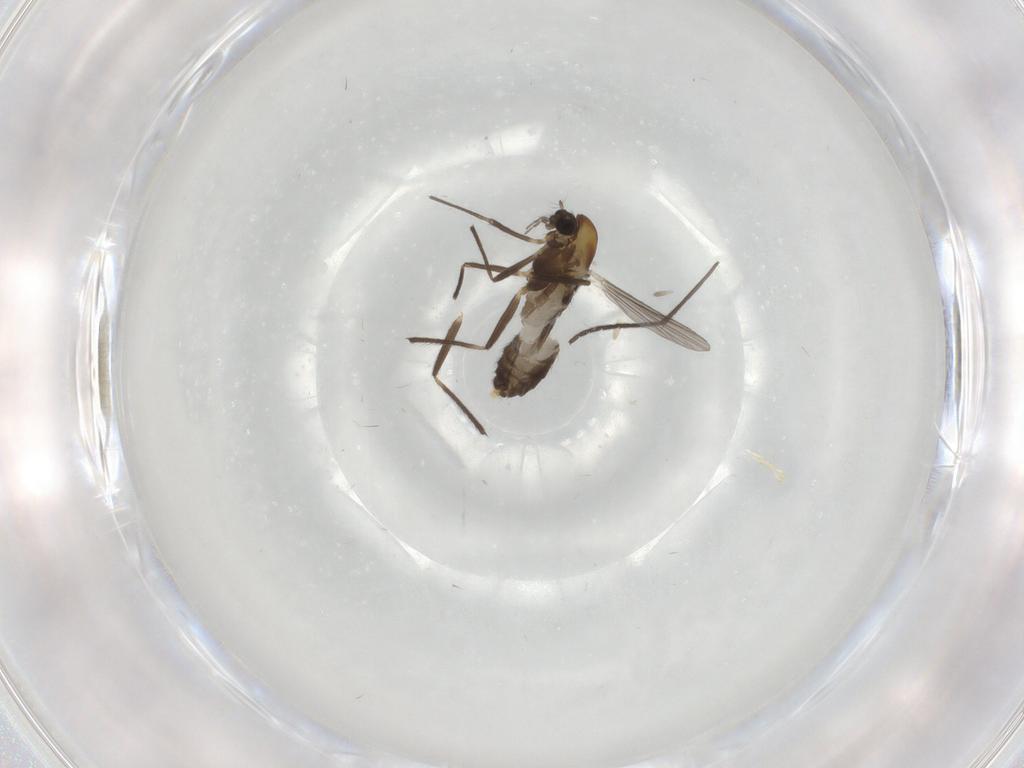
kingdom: Animalia
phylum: Arthropoda
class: Insecta
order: Diptera
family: Chironomidae
